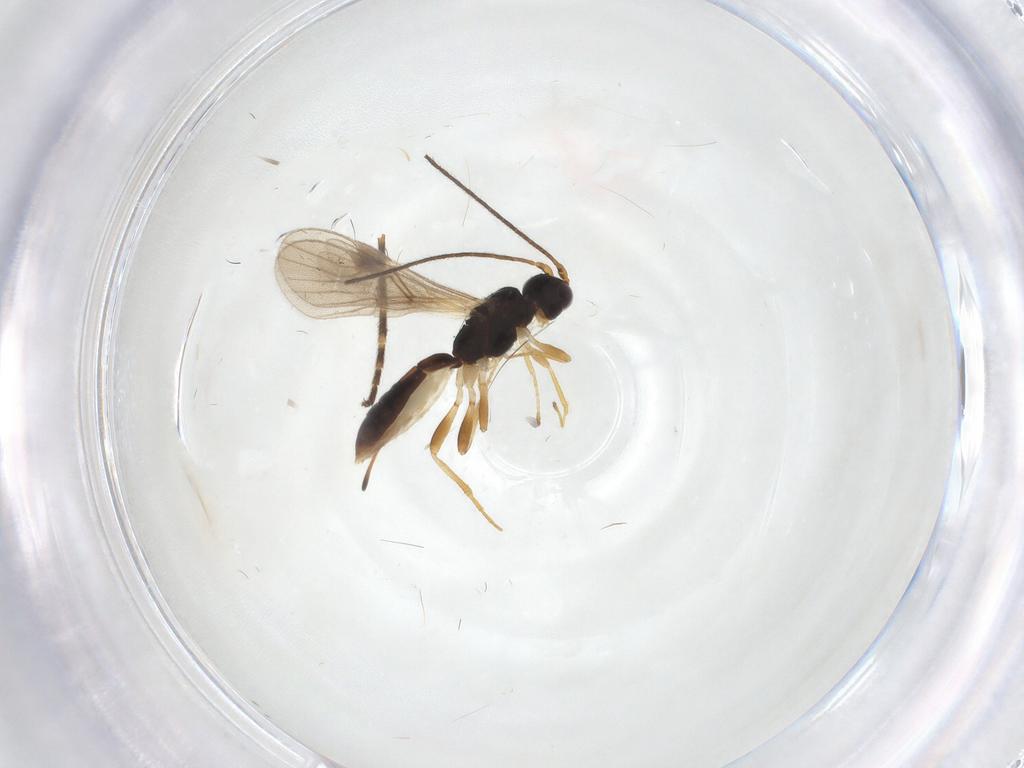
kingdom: Animalia
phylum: Arthropoda
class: Insecta
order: Hymenoptera
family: Braconidae
